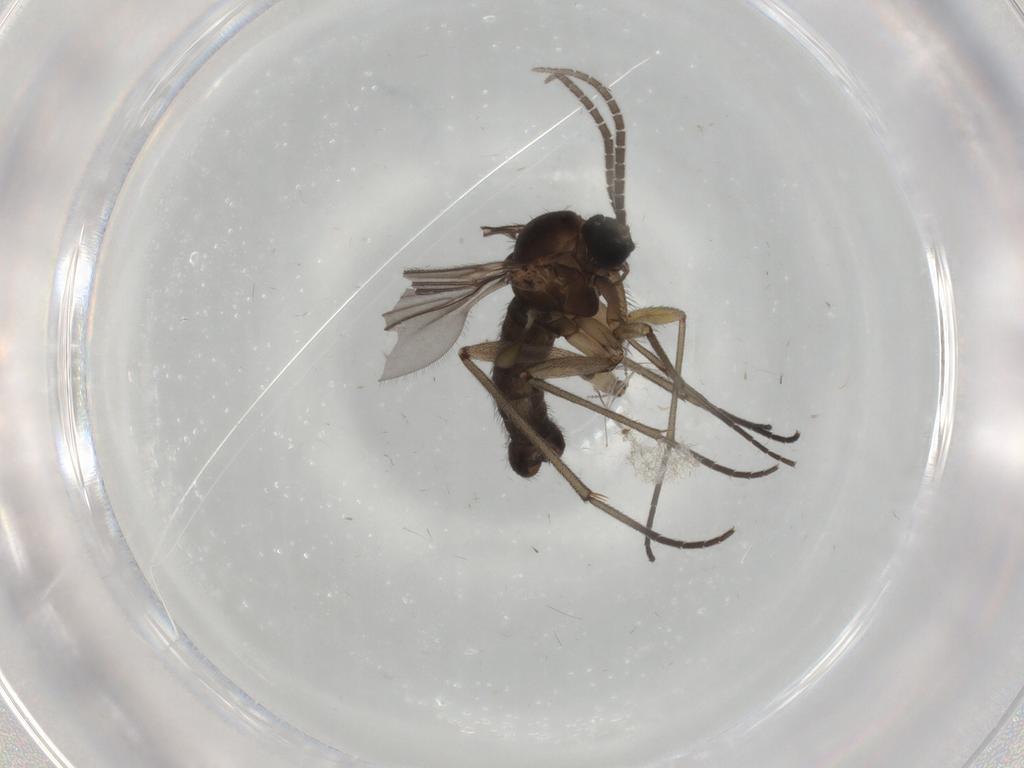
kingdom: Animalia
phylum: Arthropoda
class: Insecta
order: Diptera
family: Sciaridae
